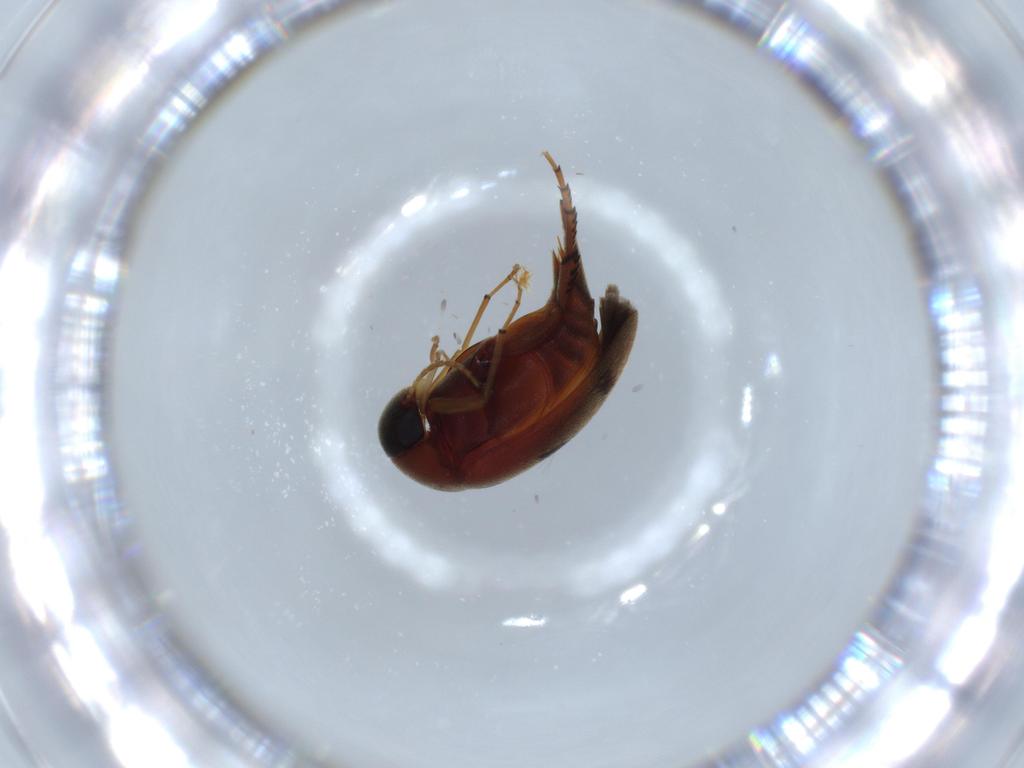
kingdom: Animalia
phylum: Arthropoda
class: Insecta
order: Coleoptera
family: Mordellidae
